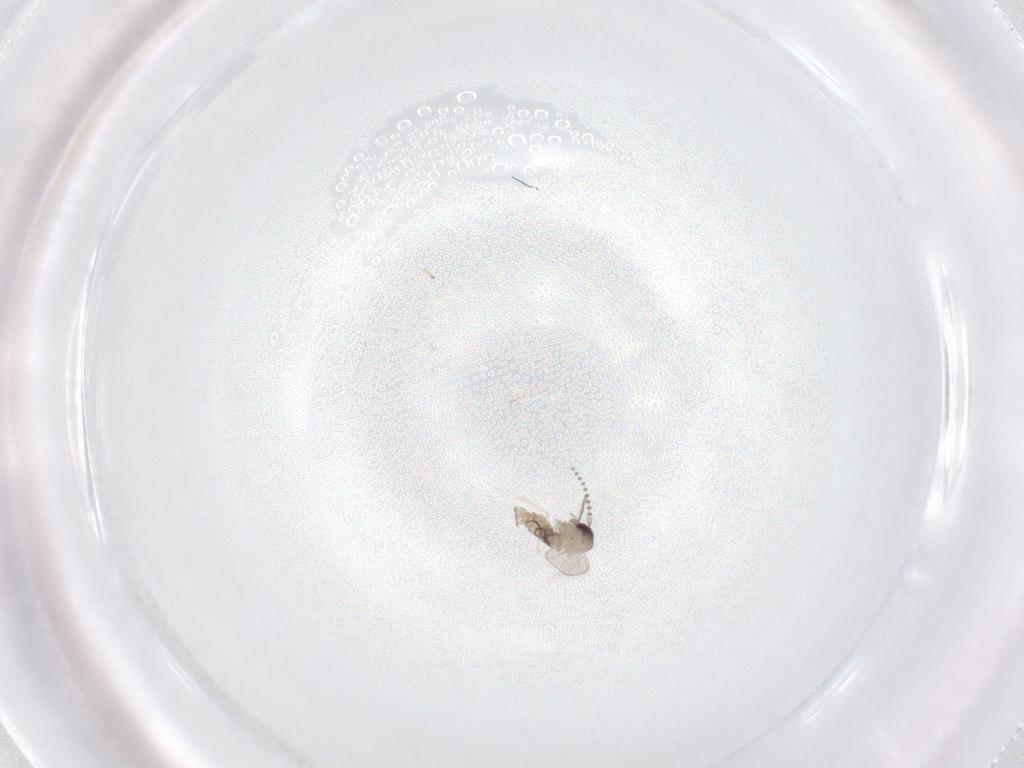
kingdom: Animalia
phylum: Arthropoda
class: Insecta
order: Diptera
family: Psychodidae
